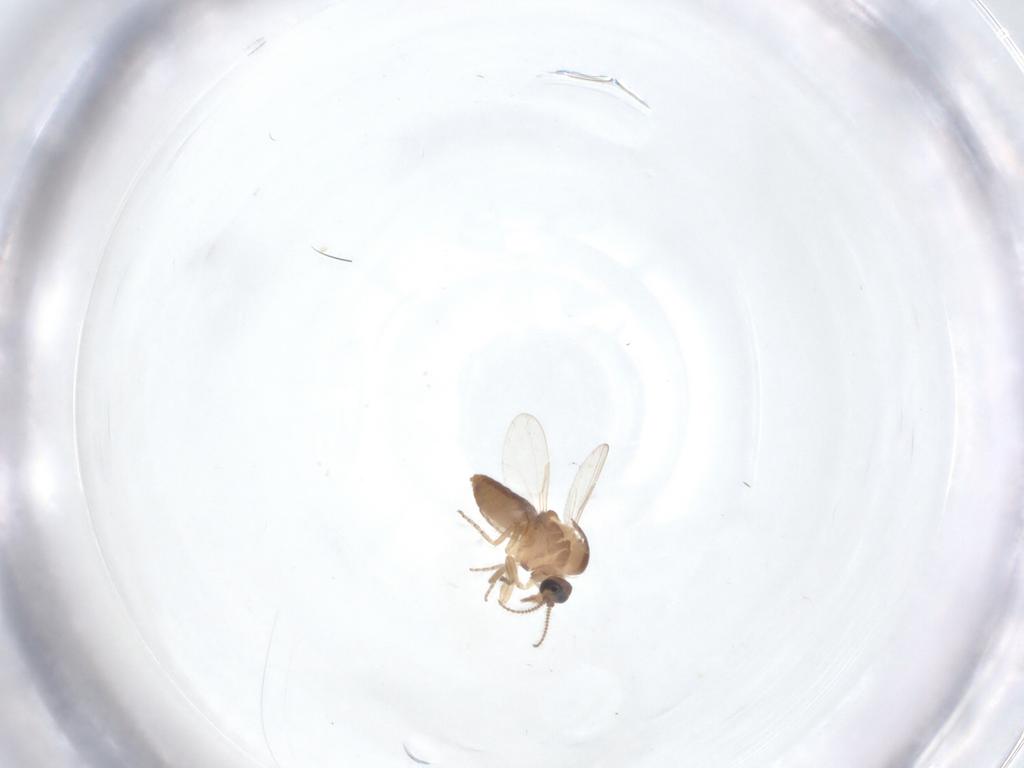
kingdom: Animalia
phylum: Arthropoda
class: Insecta
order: Diptera
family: Ceratopogonidae
